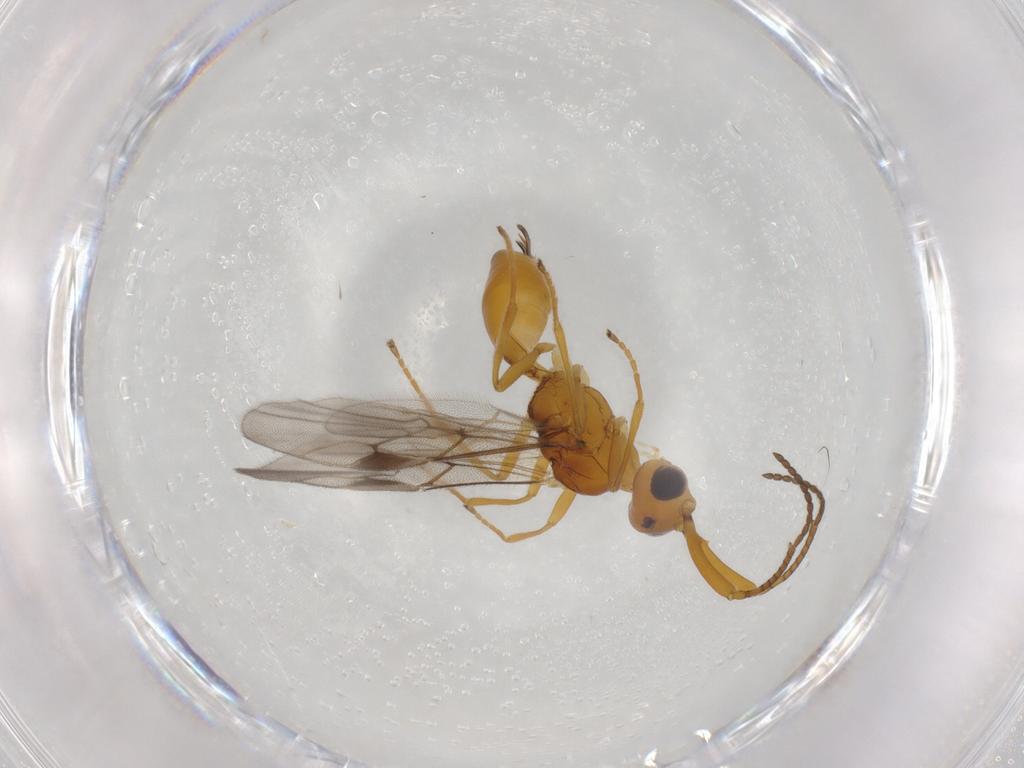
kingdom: Animalia
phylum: Arthropoda
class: Insecta
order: Hymenoptera
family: Braconidae
